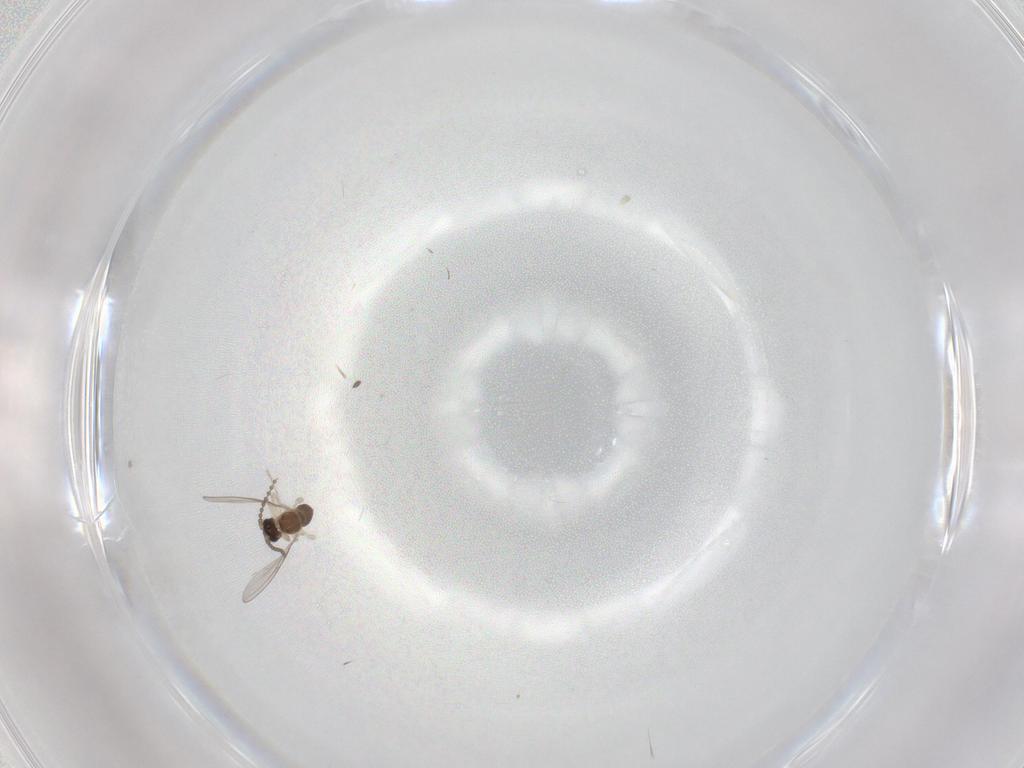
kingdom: Animalia
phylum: Arthropoda
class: Insecta
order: Diptera
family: Cecidomyiidae
